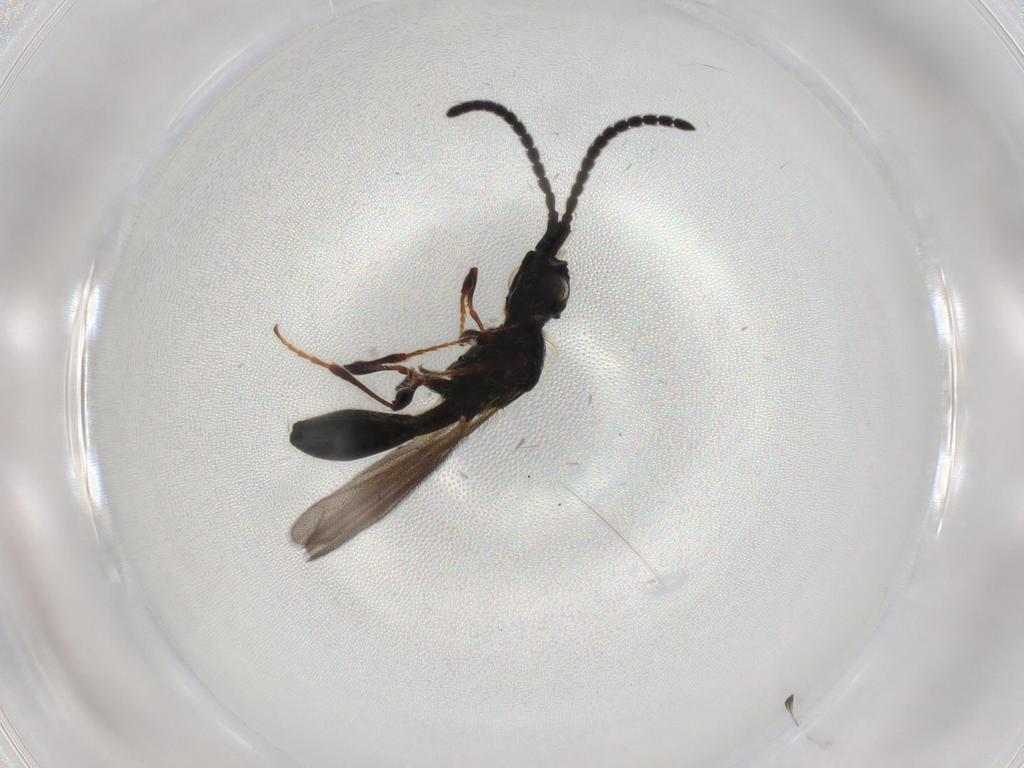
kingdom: Animalia
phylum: Arthropoda
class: Insecta
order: Hymenoptera
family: Diapriidae
